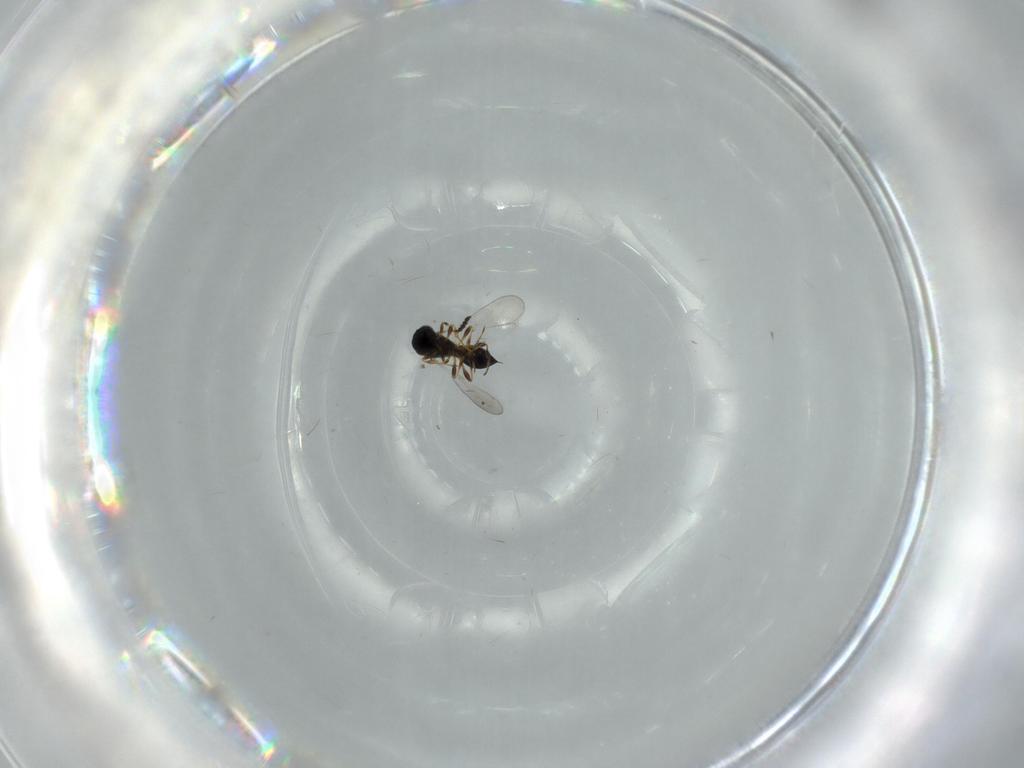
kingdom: Animalia
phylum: Arthropoda
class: Insecta
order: Hymenoptera
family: Platygastridae
